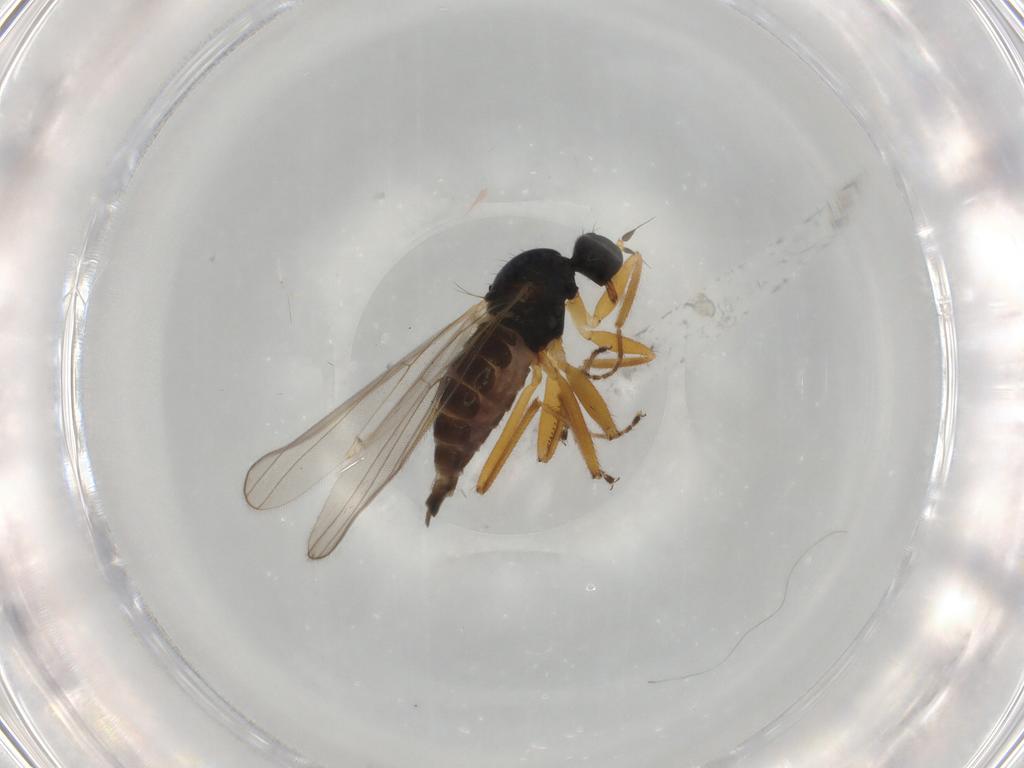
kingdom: Animalia
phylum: Arthropoda
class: Insecta
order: Diptera
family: Hybotidae
